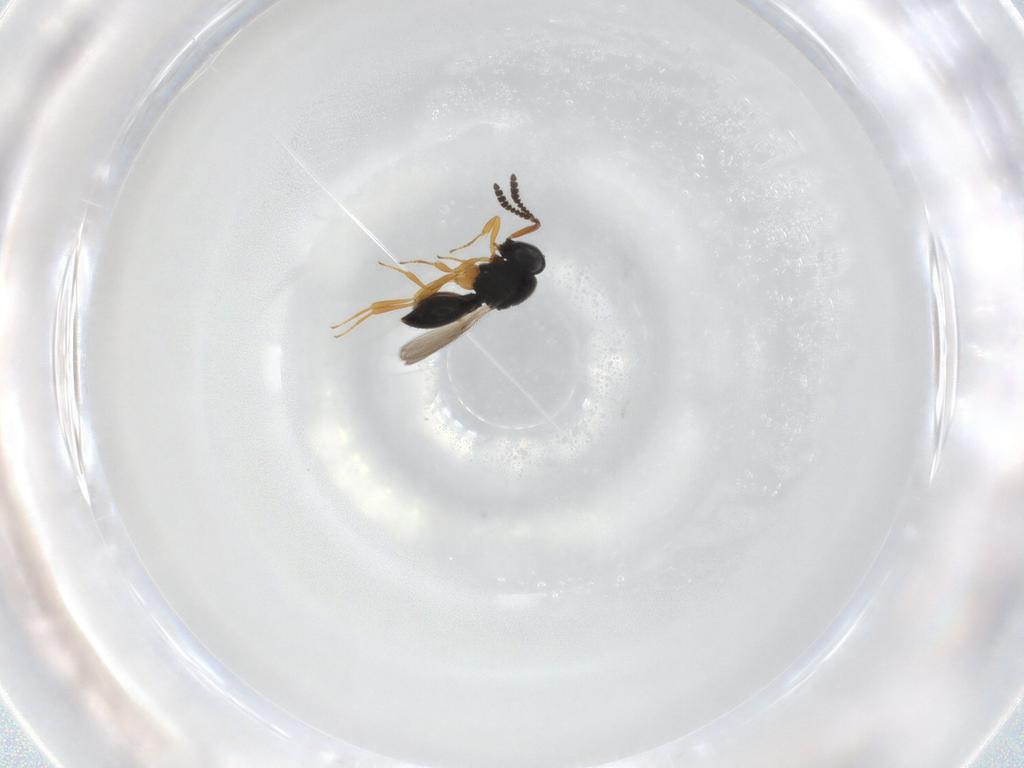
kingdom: Animalia
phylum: Arthropoda
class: Insecta
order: Hymenoptera
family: Scelionidae
